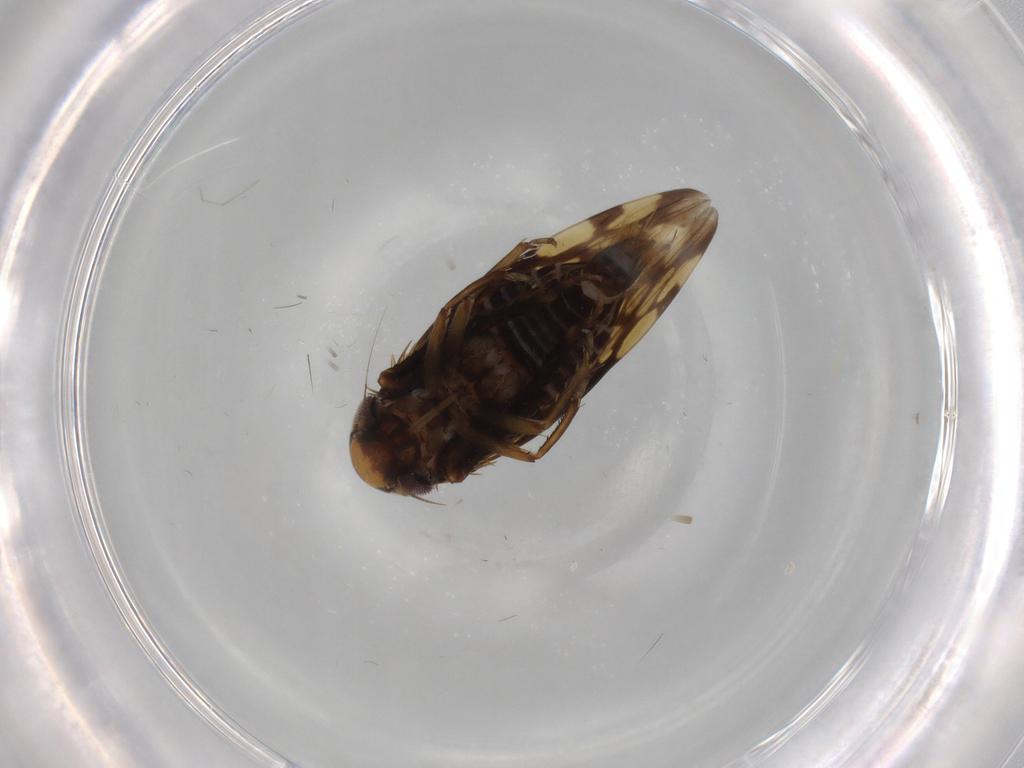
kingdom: Animalia
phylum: Arthropoda
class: Insecta
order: Hemiptera
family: Cicadellidae
